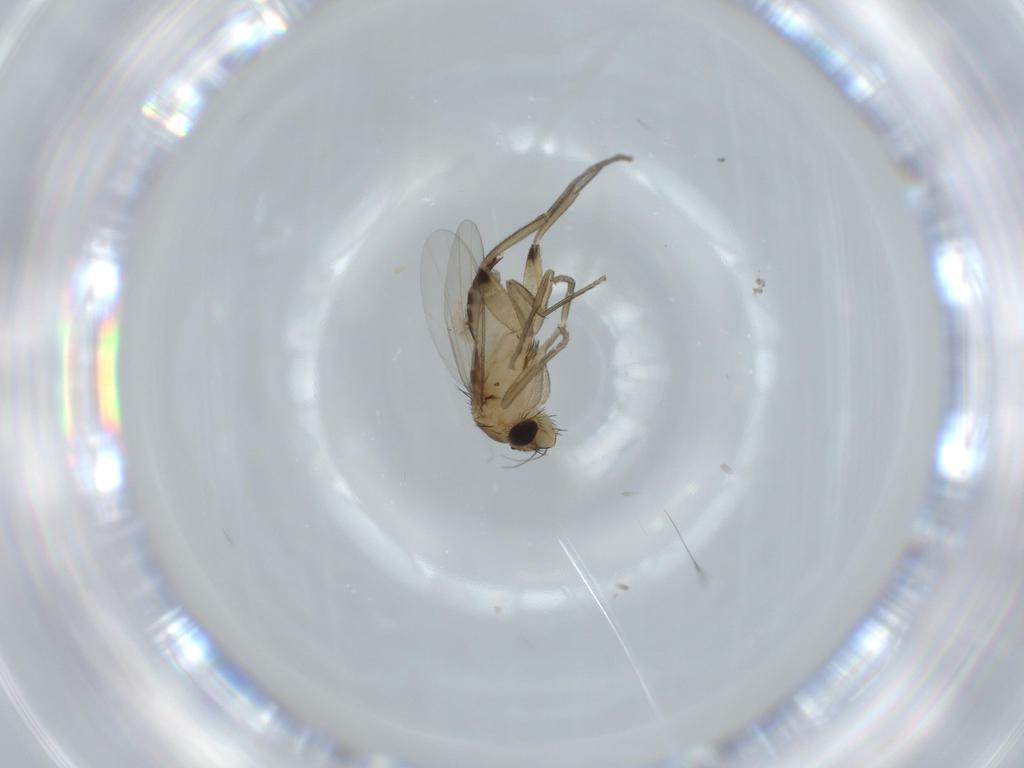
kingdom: Animalia
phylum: Arthropoda
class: Insecta
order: Diptera
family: Phoridae
